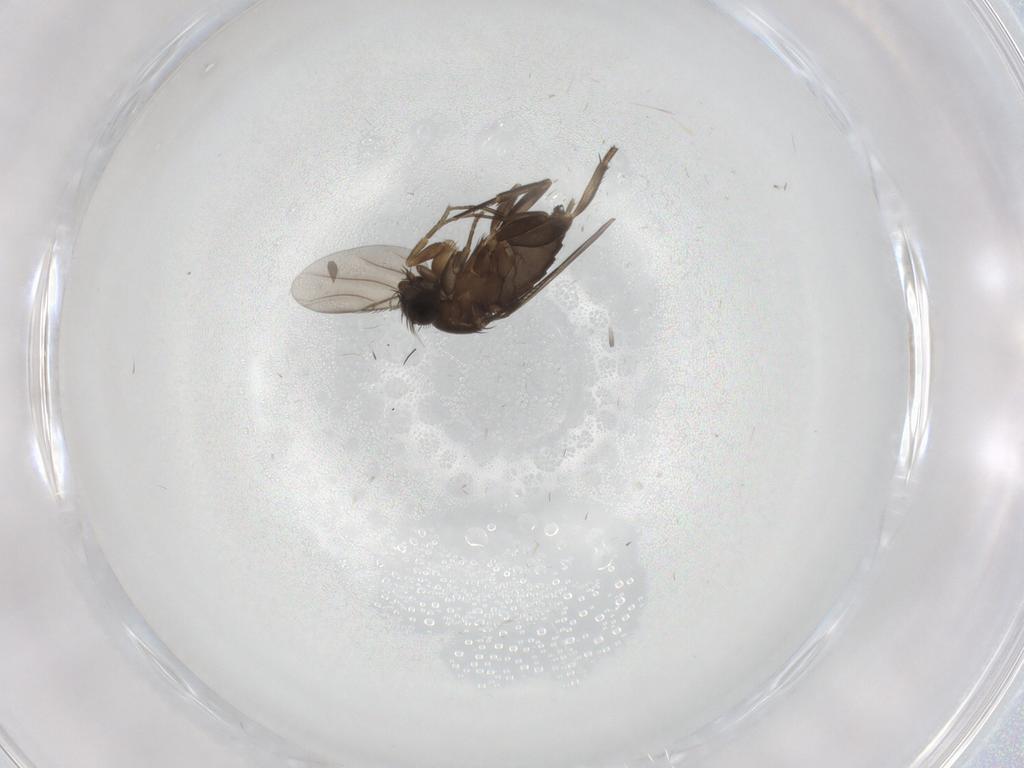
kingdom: Animalia
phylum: Arthropoda
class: Insecta
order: Diptera
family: Phoridae
